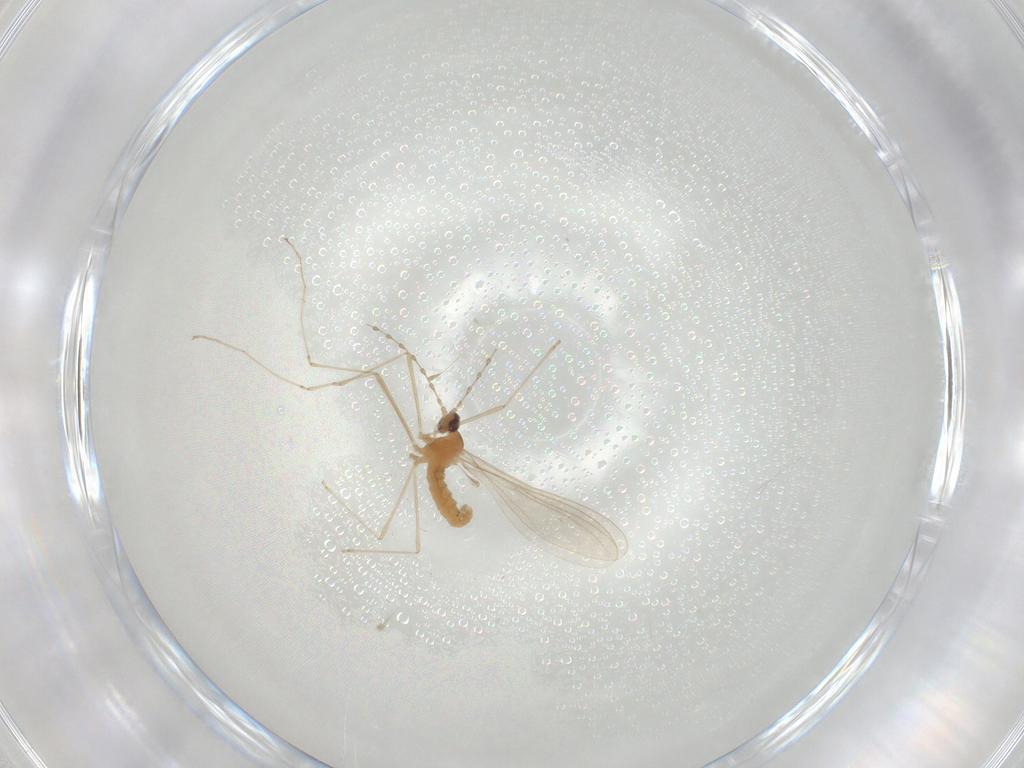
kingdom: Animalia
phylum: Arthropoda
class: Insecta
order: Diptera
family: Cecidomyiidae
